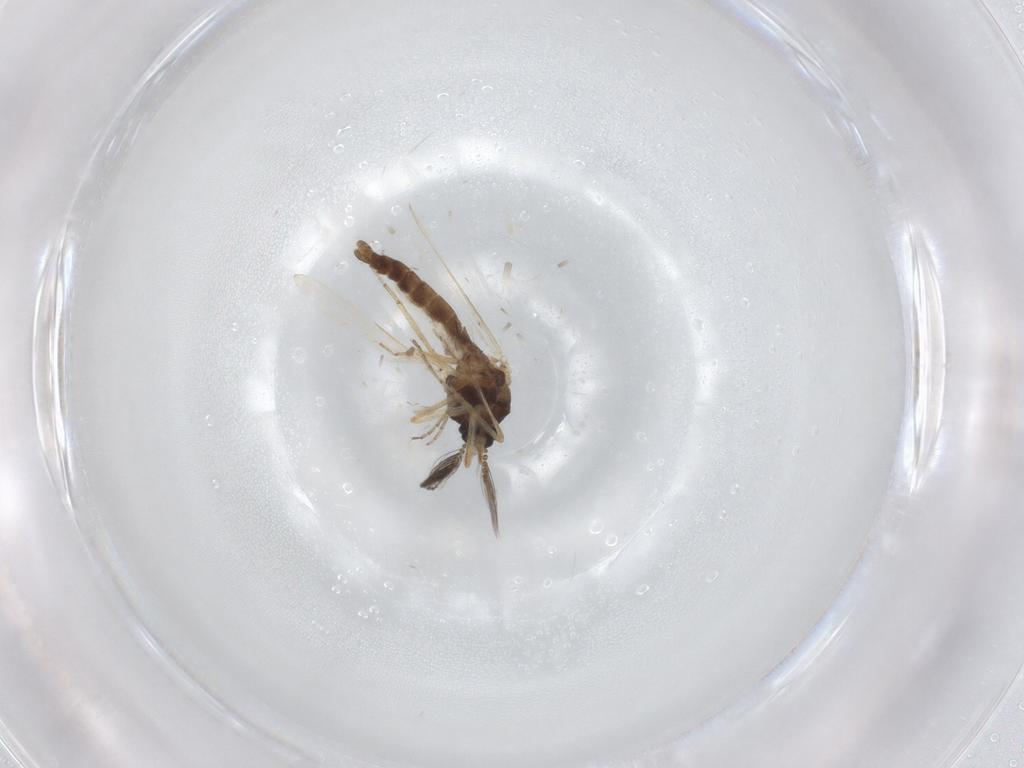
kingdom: Animalia
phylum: Arthropoda
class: Insecta
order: Diptera
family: Ceratopogonidae
